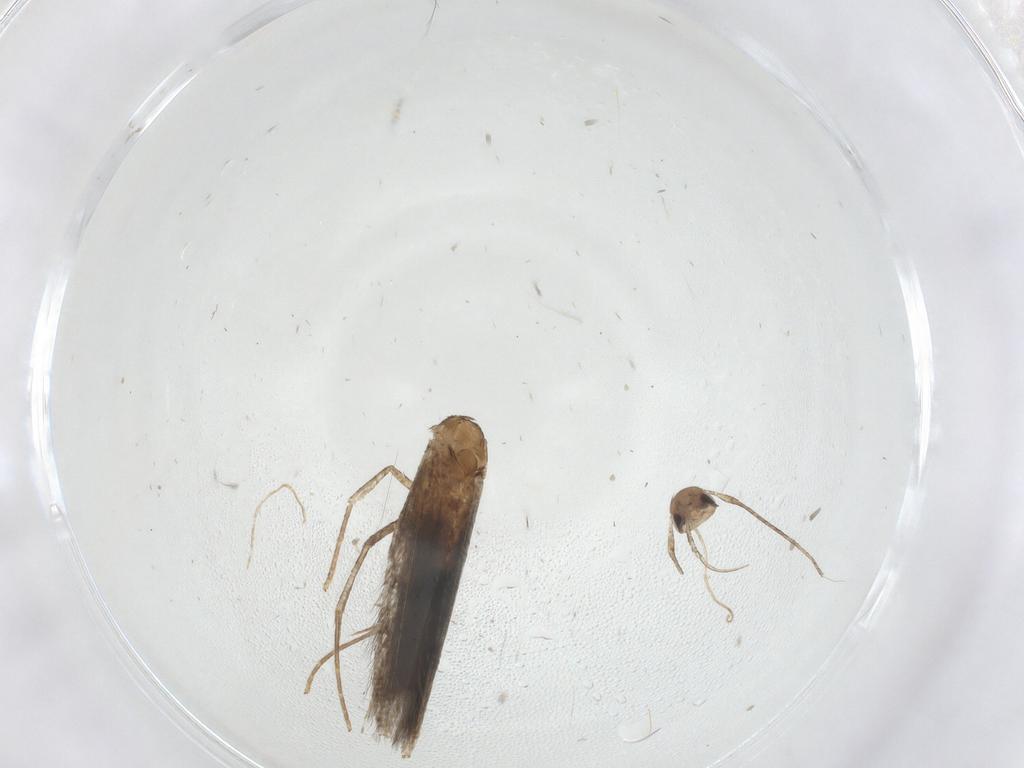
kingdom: Animalia
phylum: Arthropoda
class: Insecta
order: Lepidoptera
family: Cosmopterigidae
